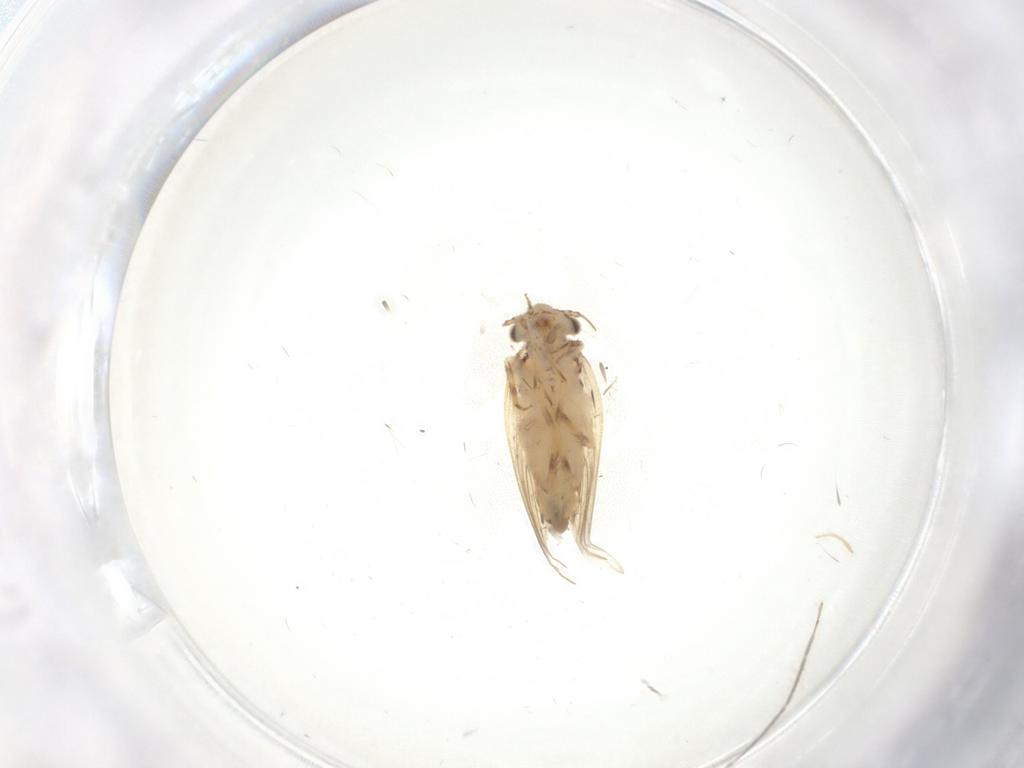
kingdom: Animalia
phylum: Arthropoda
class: Insecta
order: Psocodea
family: Lepidopsocidae
